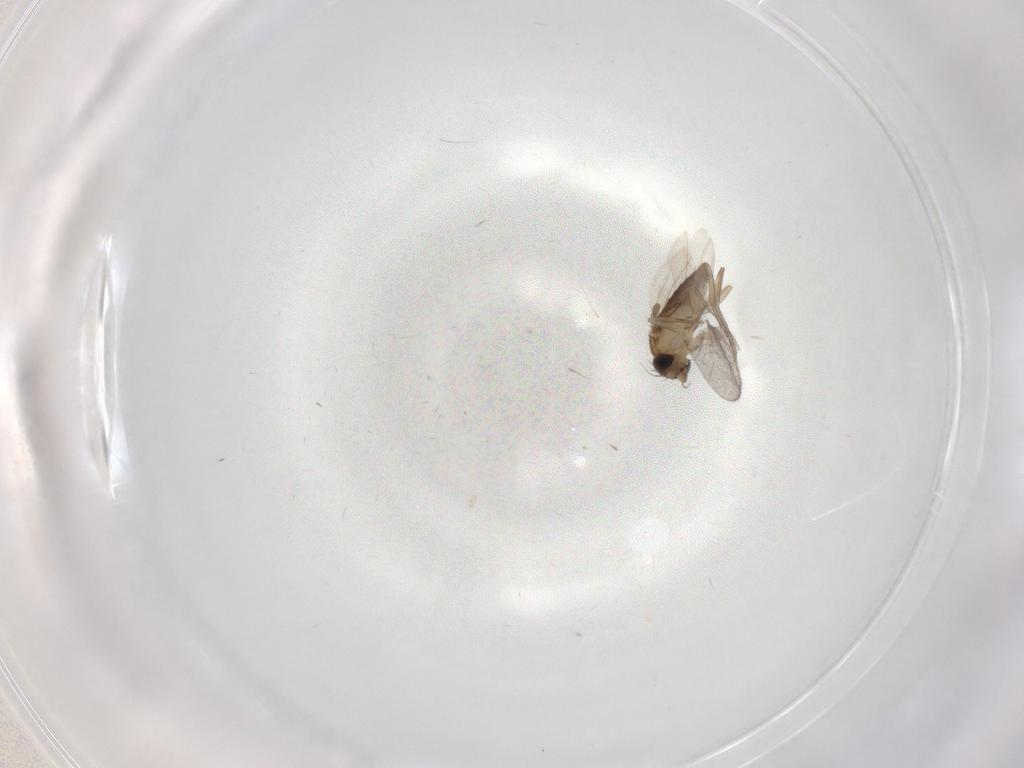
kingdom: Animalia
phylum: Arthropoda
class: Insecta
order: Diptera
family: Phoridae
